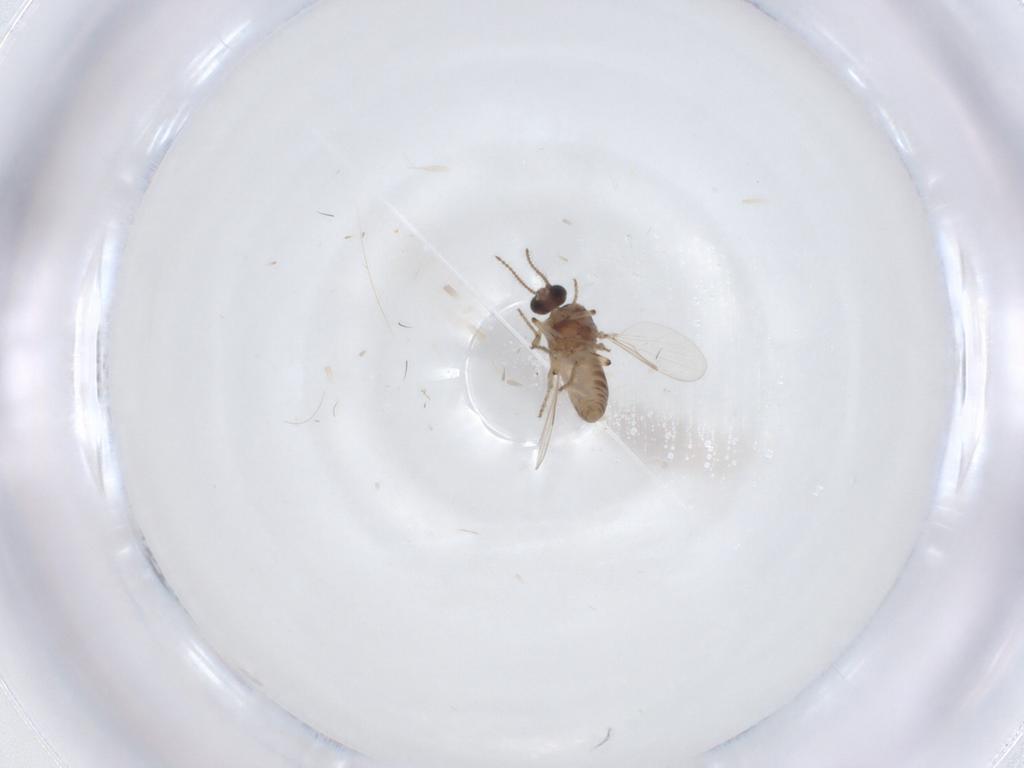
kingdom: Animalia
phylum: Arthropoda
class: Insecta
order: Diptera
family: Ceratopogonidae
